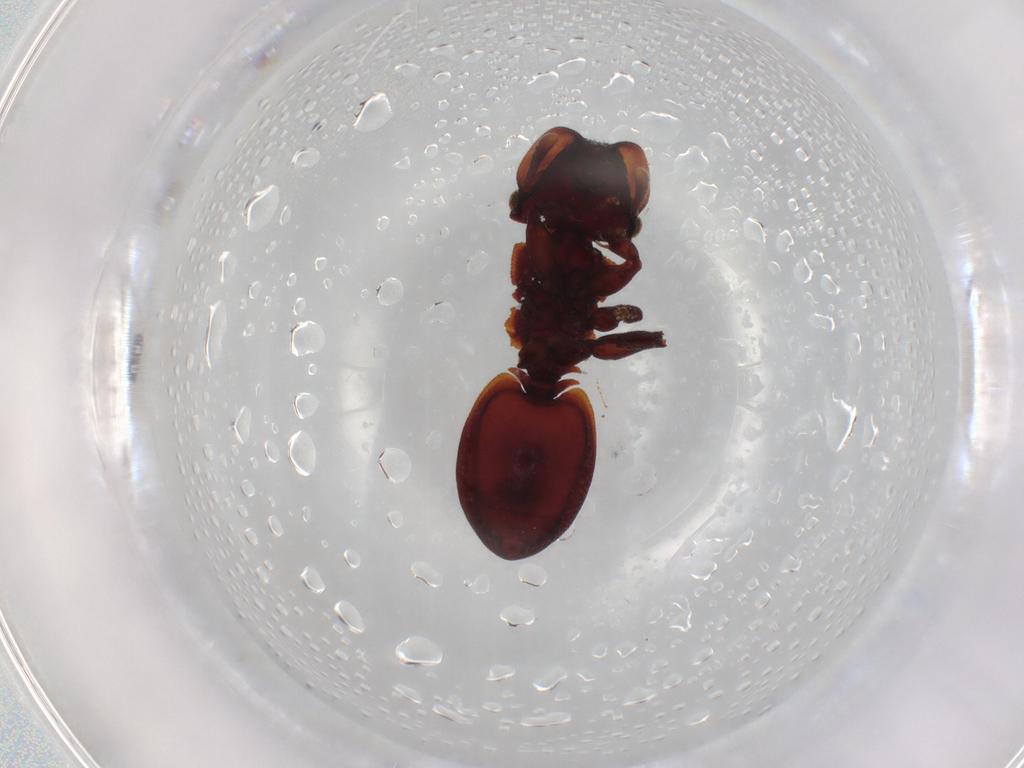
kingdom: Animalia
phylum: Arthropoda
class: Insecta
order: Hymenoptera
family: Formicidae
